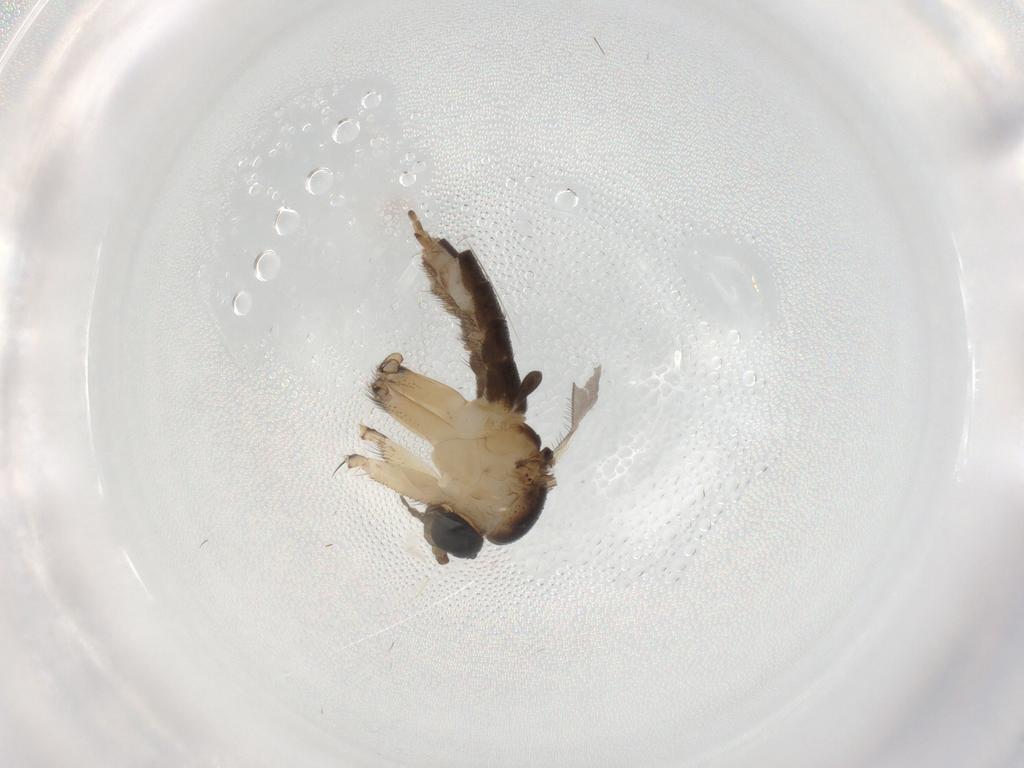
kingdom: Animalia
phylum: Arthropoda
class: Insecta
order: Diptera
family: Sciaridae
